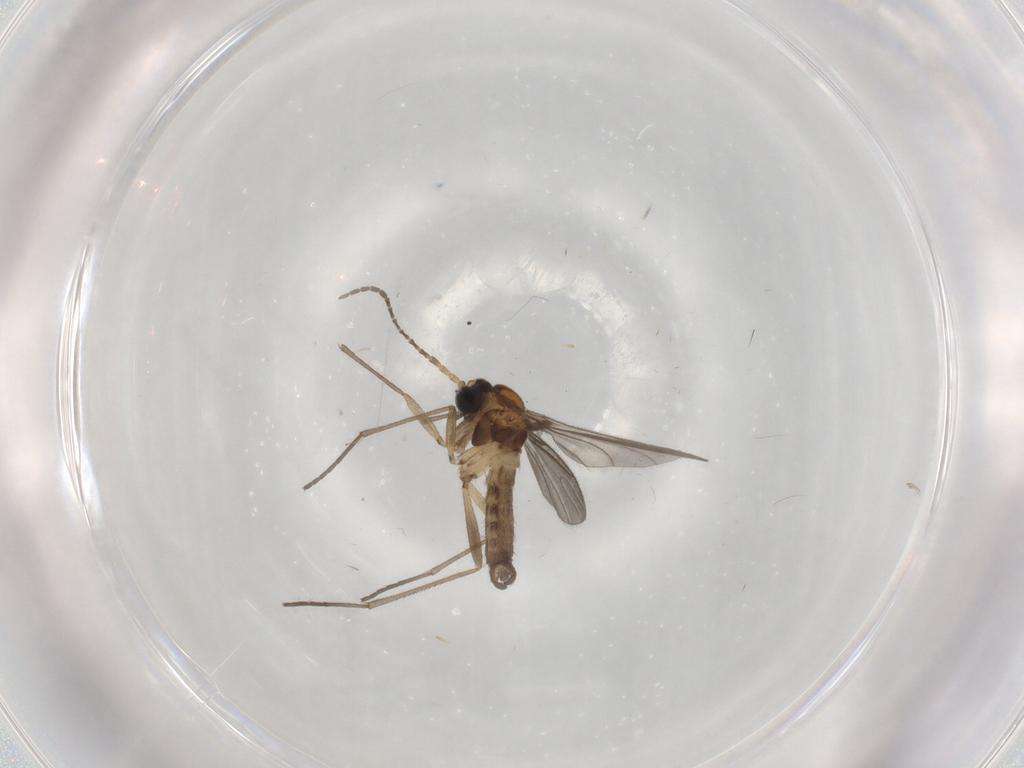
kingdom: Animalia
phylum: Arthropoda
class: Insecta
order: Diptera
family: Sciaridae
